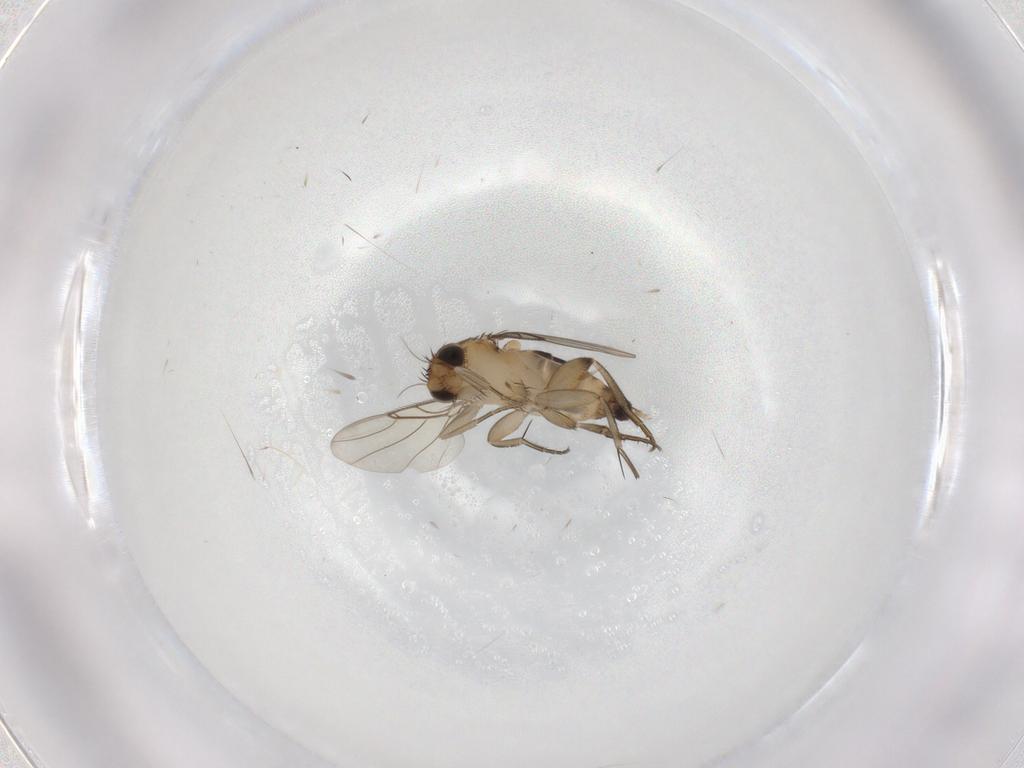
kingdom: Animalia
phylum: Arthropoda
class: Insecta
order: Diptera
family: Phoridae
